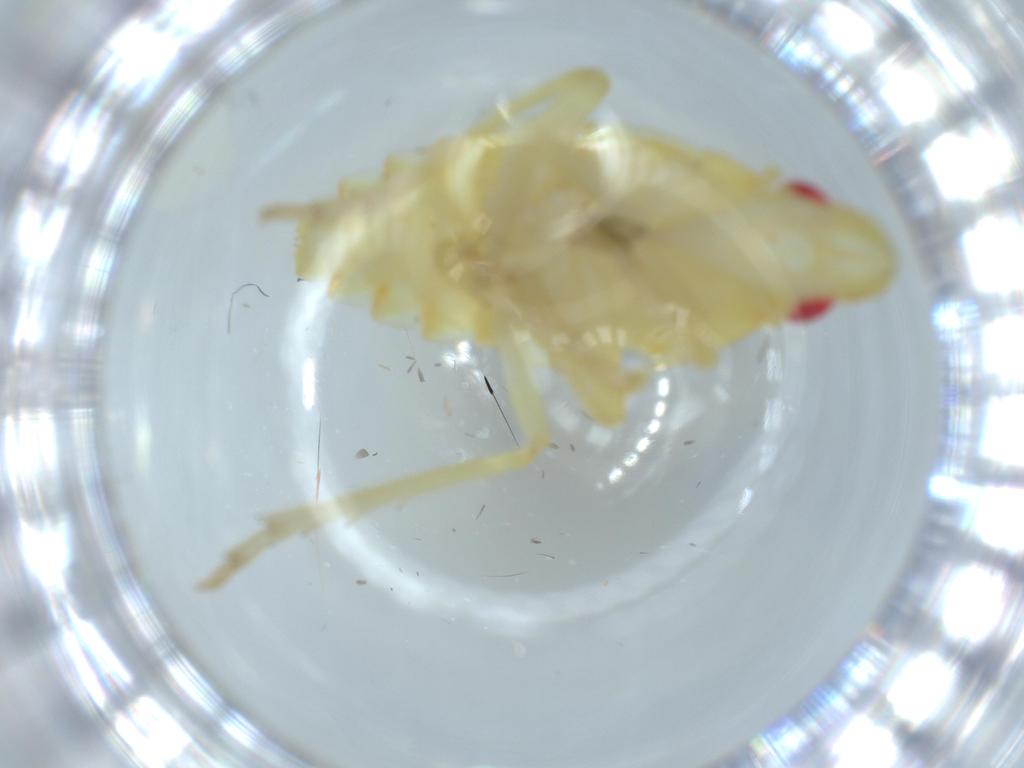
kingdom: Animalia
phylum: Arthropoda
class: Insecta
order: Hemiptera
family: Tropiduchidae
